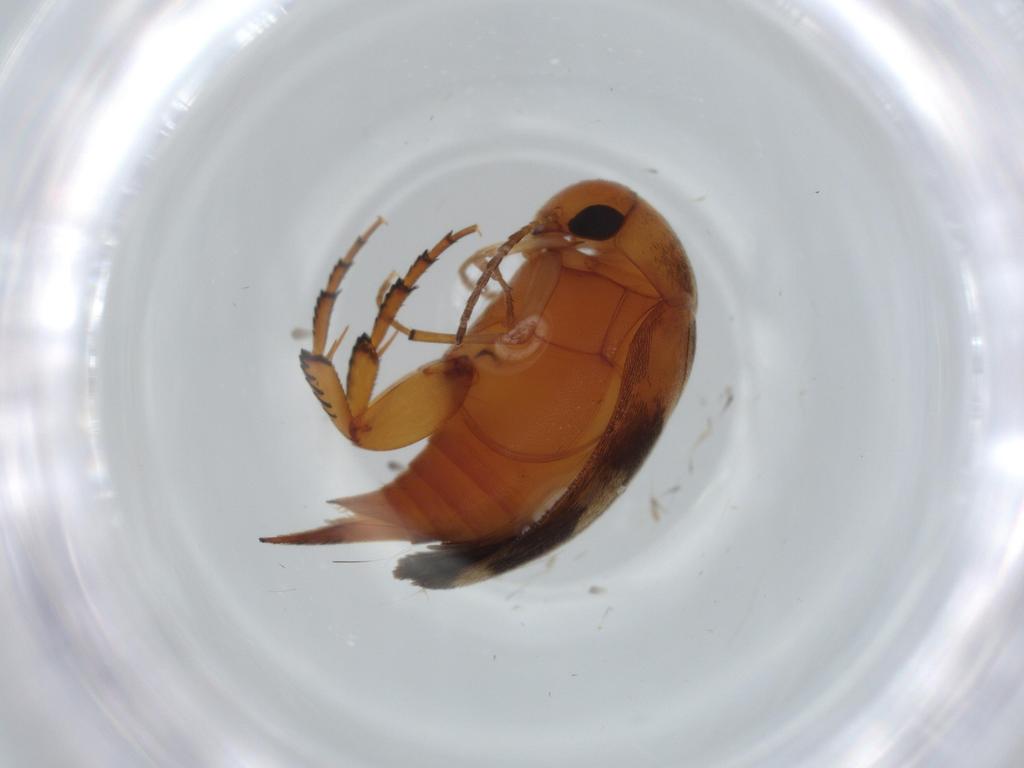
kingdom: Animalia
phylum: Arthropoda
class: Insecta
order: Coleoptera
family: Mordellidae
